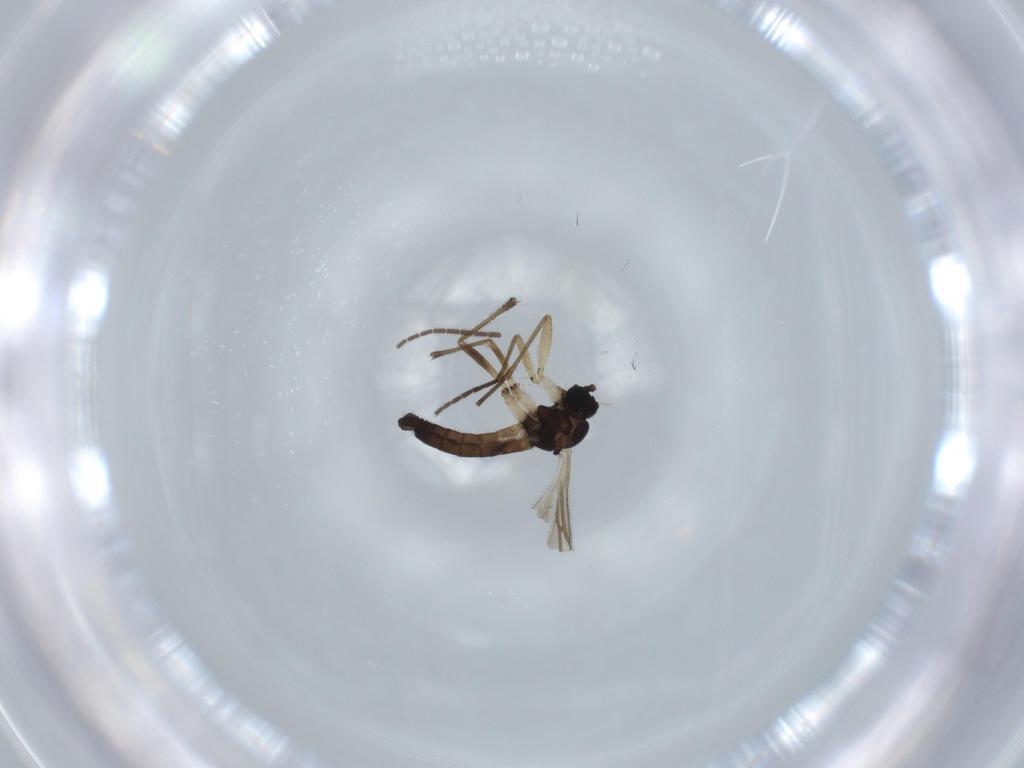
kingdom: Animalia
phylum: Arthropoda
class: Insecta
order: Diptera
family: Sciaridae
